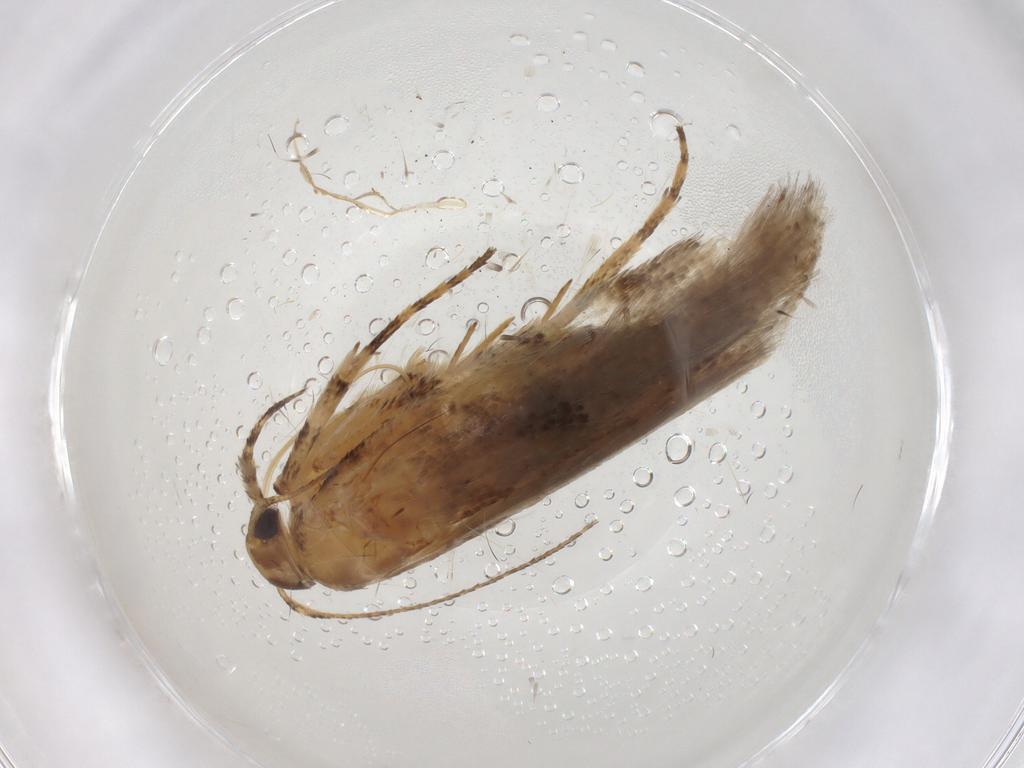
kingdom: Animalia
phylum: Arthropoda
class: Insecta
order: Lepidoptera
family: Gelechiidae
